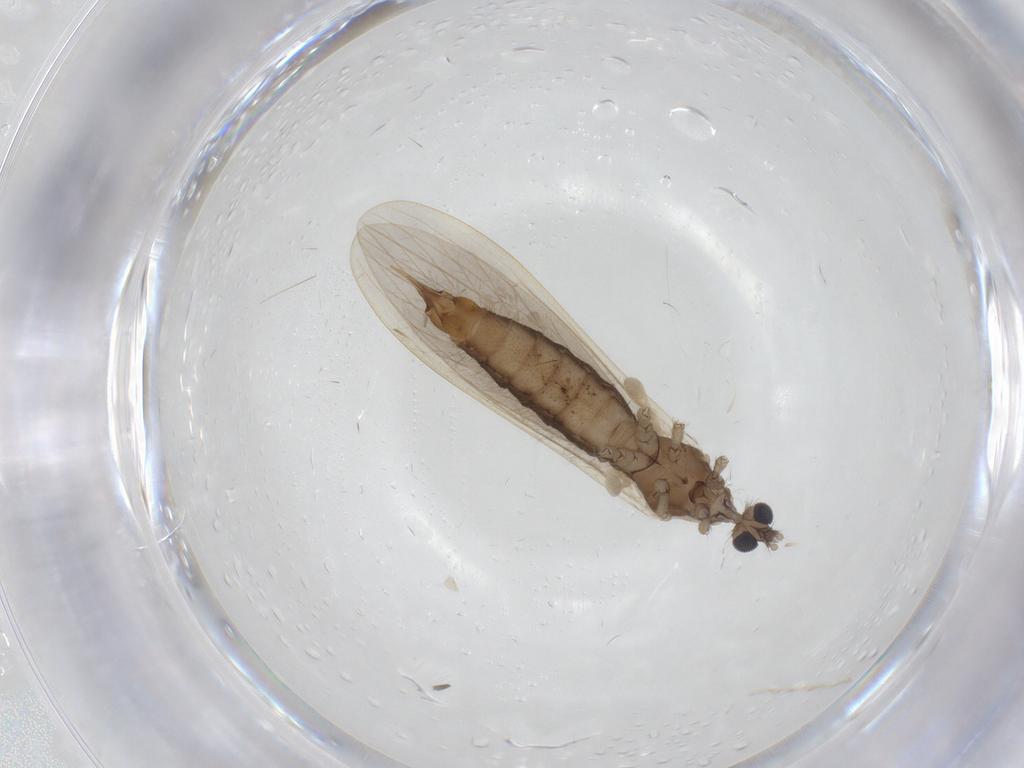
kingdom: Animalia
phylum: Arthropoda
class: Insecta
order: Diptera
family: Limoniidae
